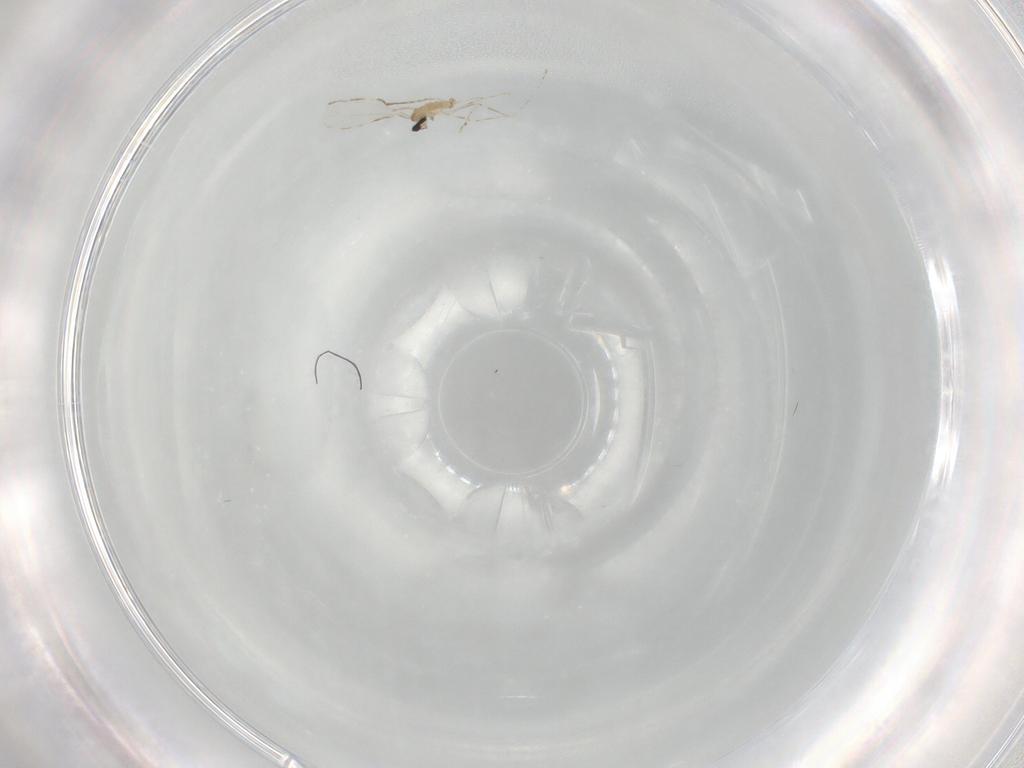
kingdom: Animalia
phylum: Arthropoda
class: Insecta
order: Diptera
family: Cecidomyiidae
